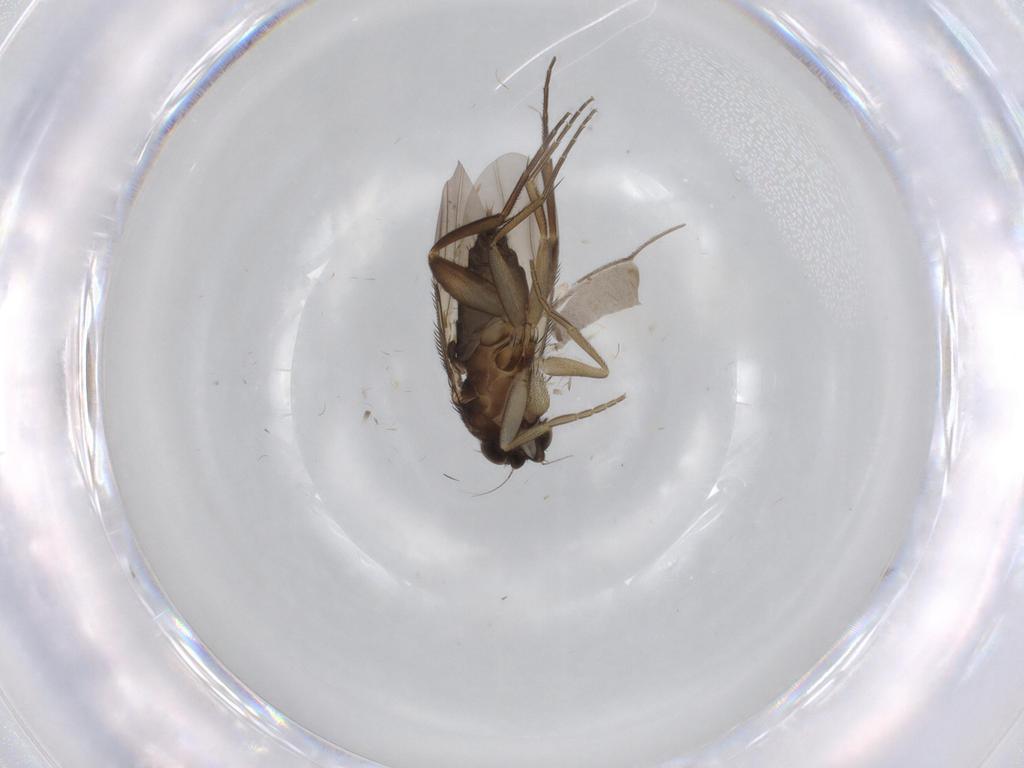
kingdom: Animalia
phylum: Arthropoda
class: Insecta
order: Diptera
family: Sciaridae
